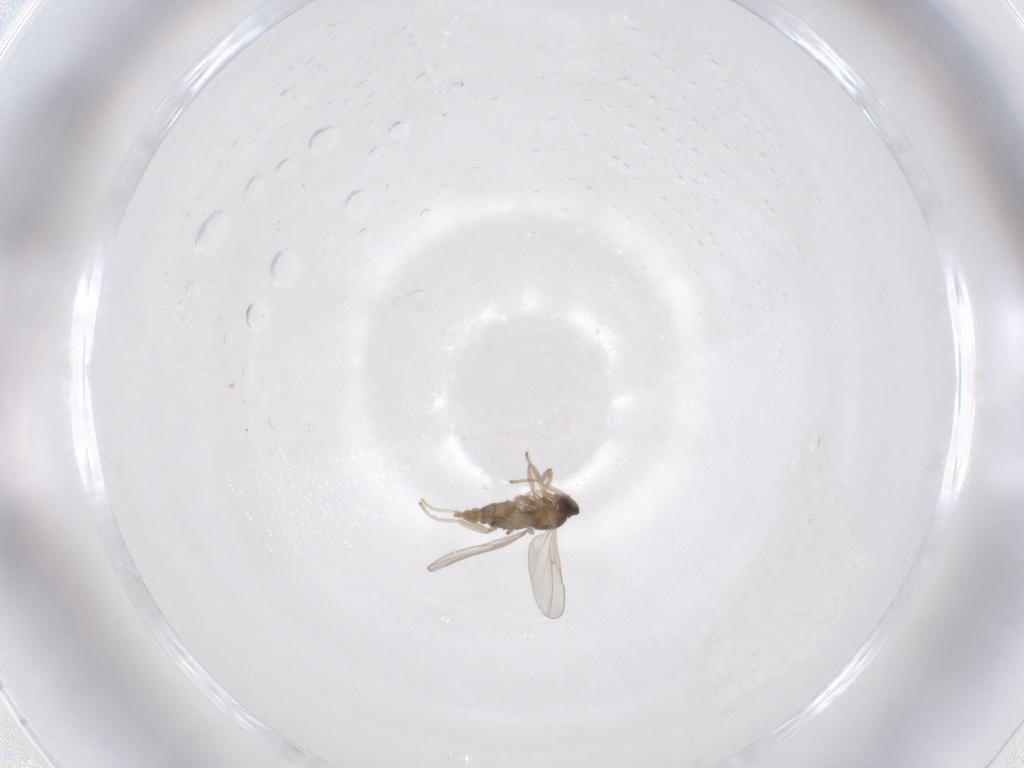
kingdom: Animalia
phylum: Arthropoda
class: Insecta
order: Diptera
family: Cecidomyiidae
